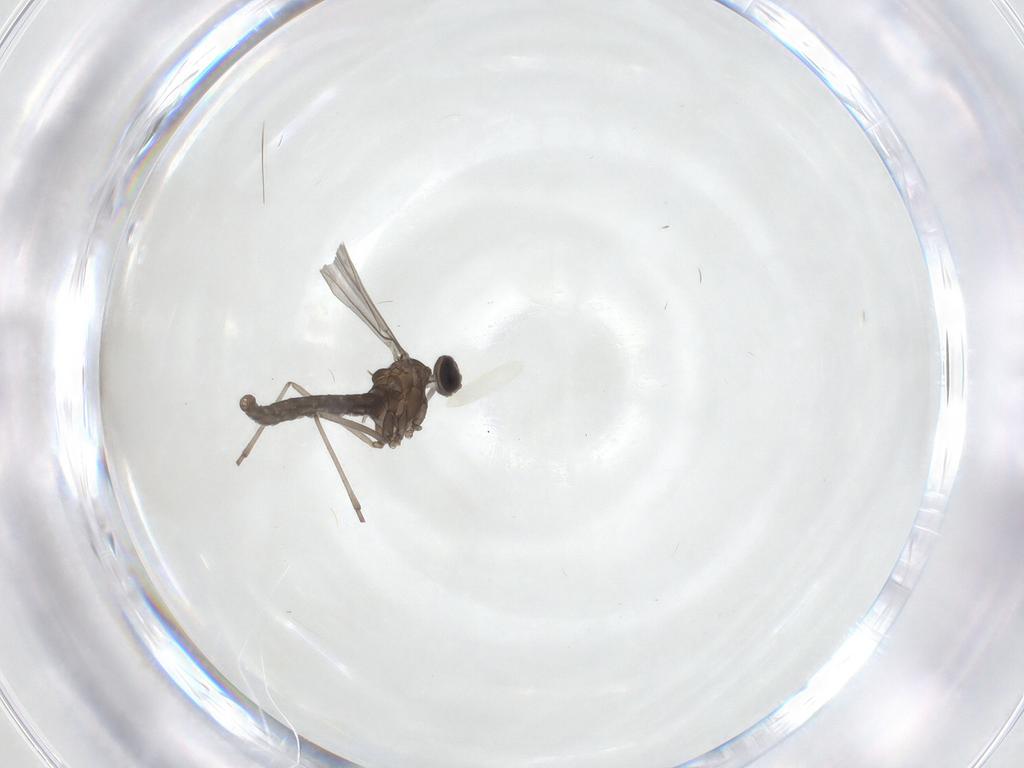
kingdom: Animalia
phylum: Arthropoda
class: Insecta
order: Diptera
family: Cecidomyiidae
